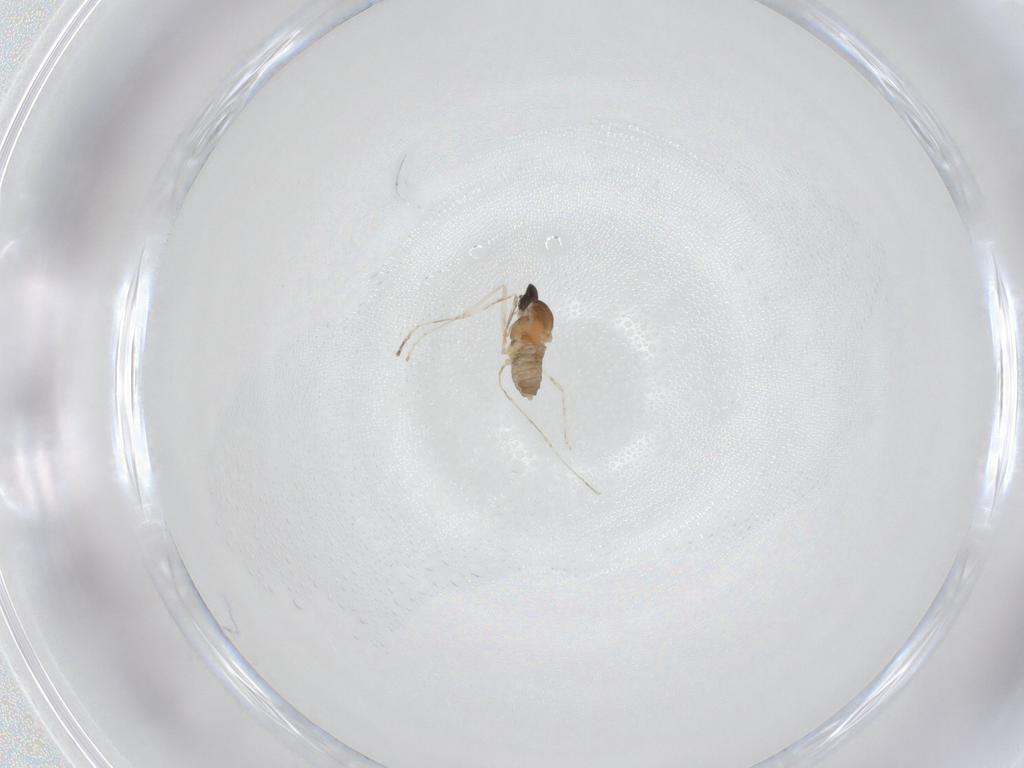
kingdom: Animalia
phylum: Arthropoda
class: Insecta
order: Diptera
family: Cecidomyiidae
